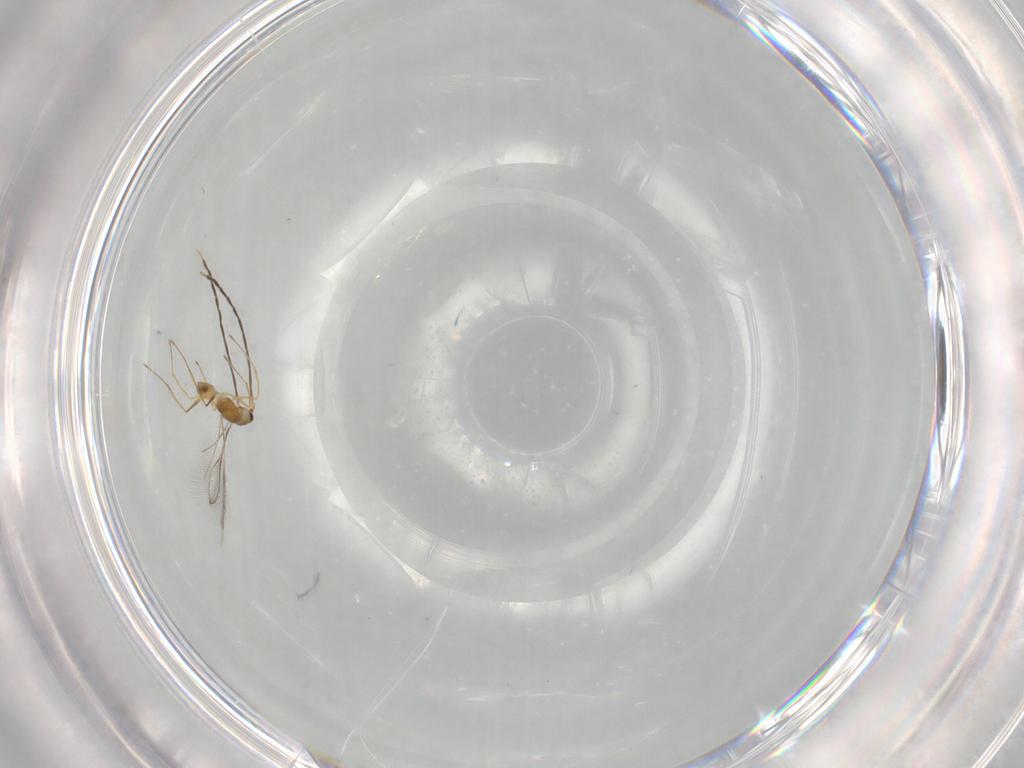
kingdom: Animalia
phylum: Arthropoda
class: Insecta
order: Hymenoptera
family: Mymaridae
